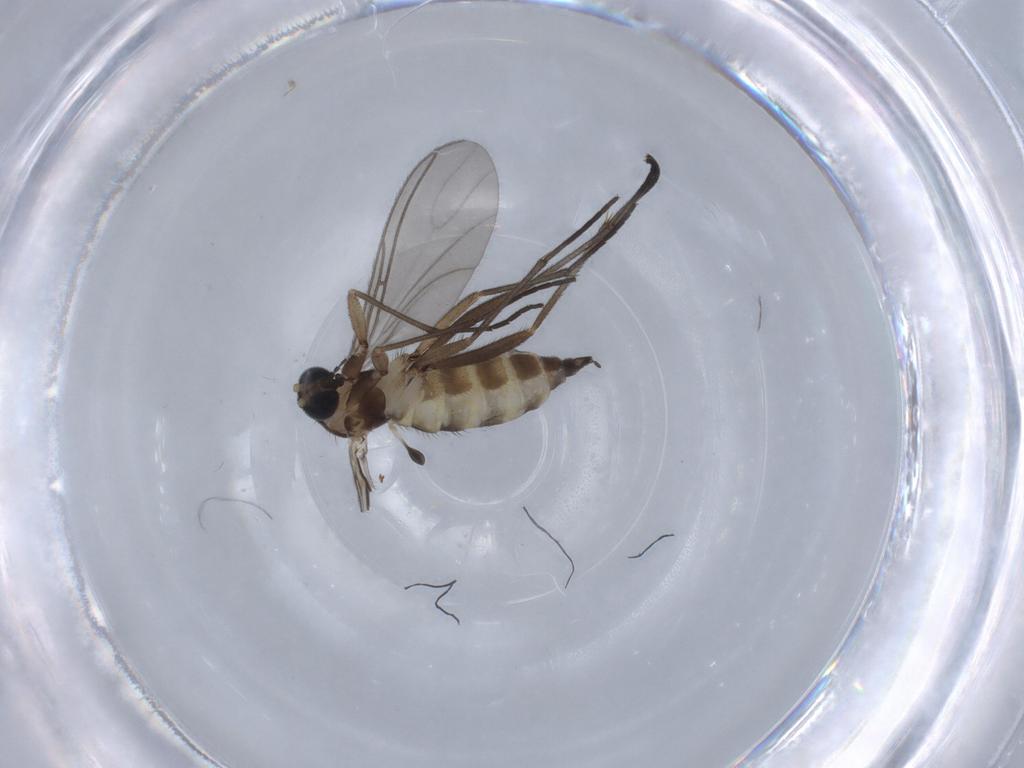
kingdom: Animalia
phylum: Arthropoda
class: Insecta
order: Diptera
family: Sciaridae
